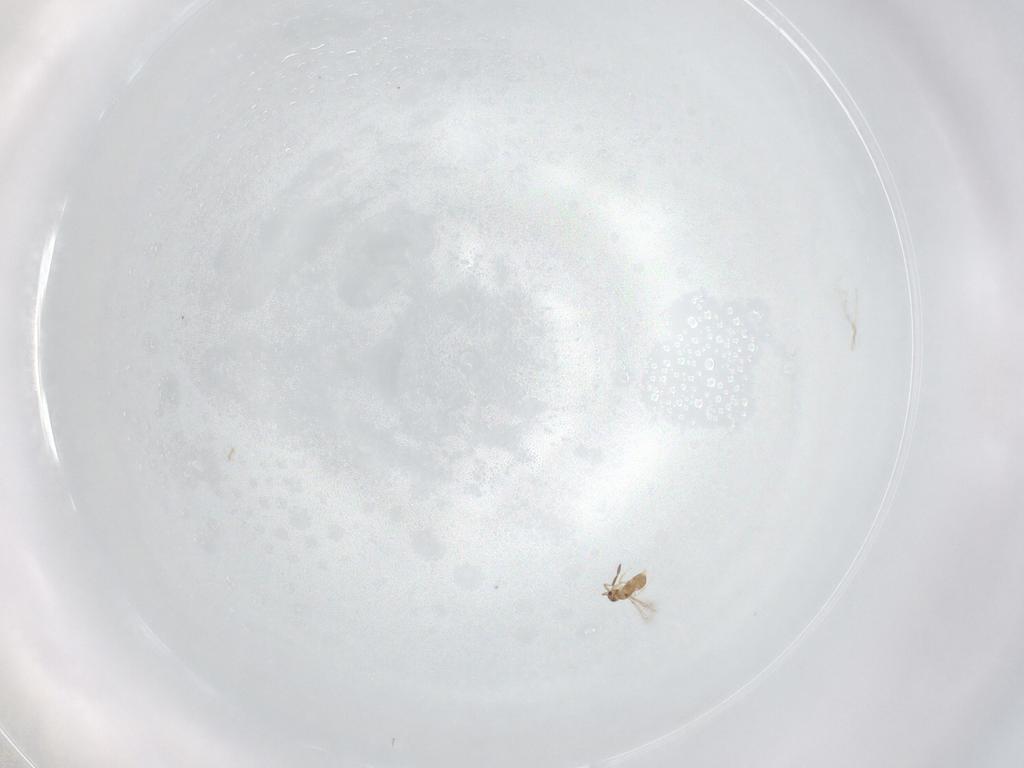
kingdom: Animalia
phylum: Arthropoda
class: Insecta
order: Hymenoptera
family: Mymaridae
